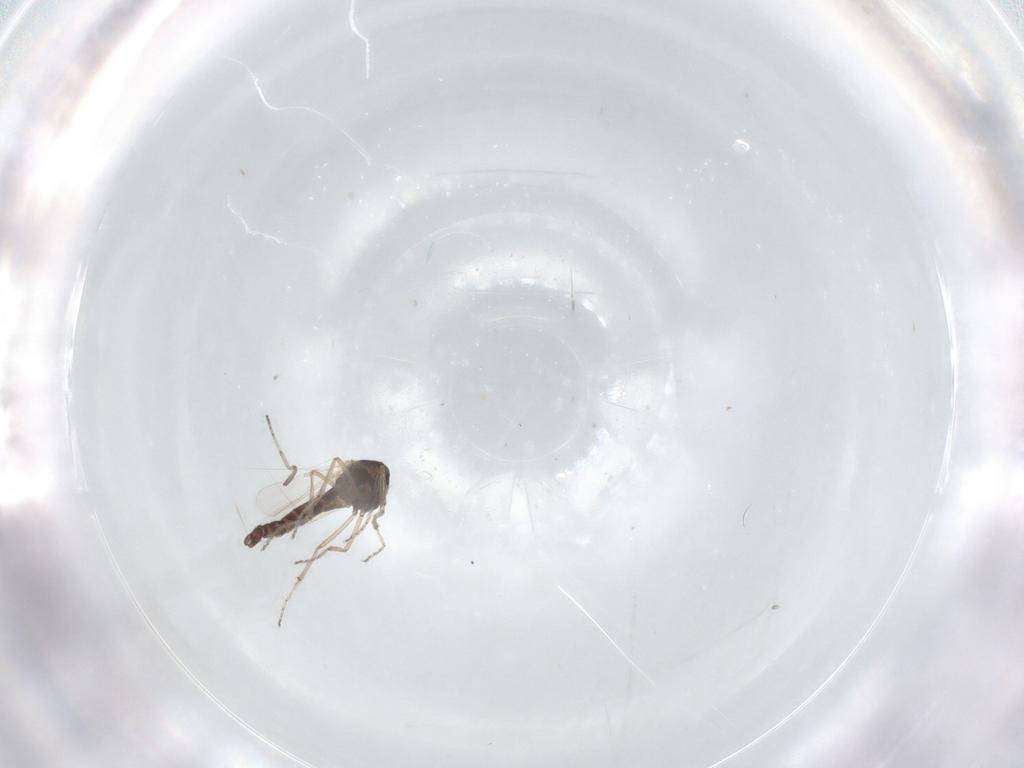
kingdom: Animalia
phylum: Arthropoda
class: Insecta
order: Diptera
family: Ceratopogonidae
